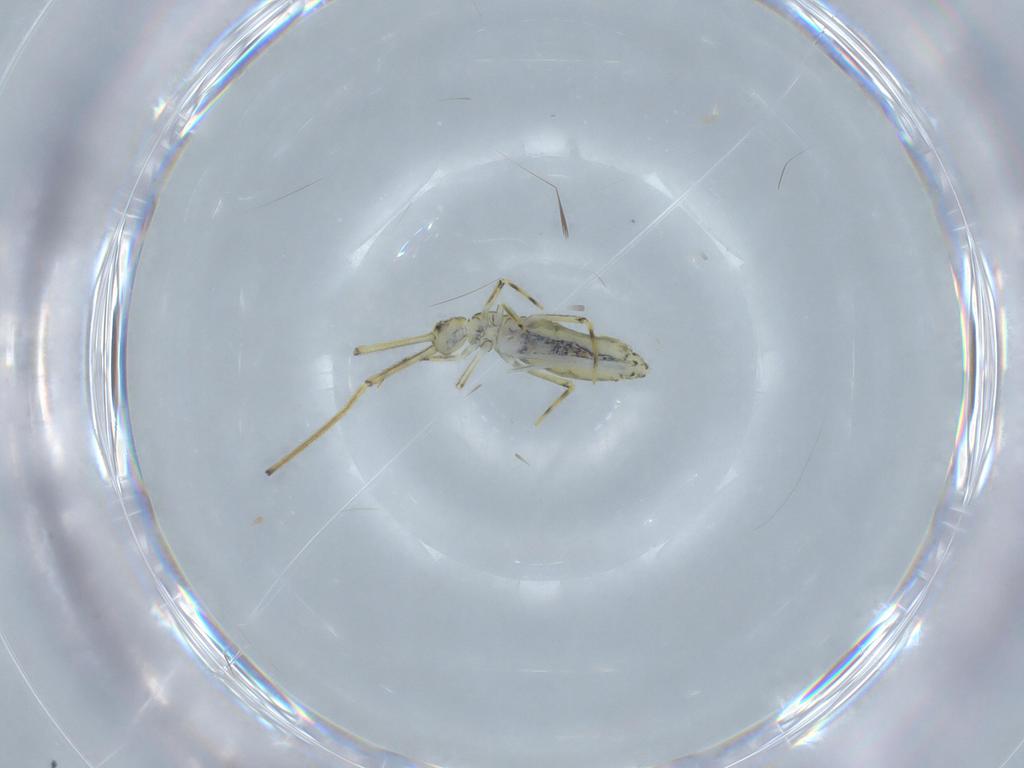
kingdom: Animalia
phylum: Arthropoda
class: Collembola
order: Entomobryomorpha
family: Paronellidae
